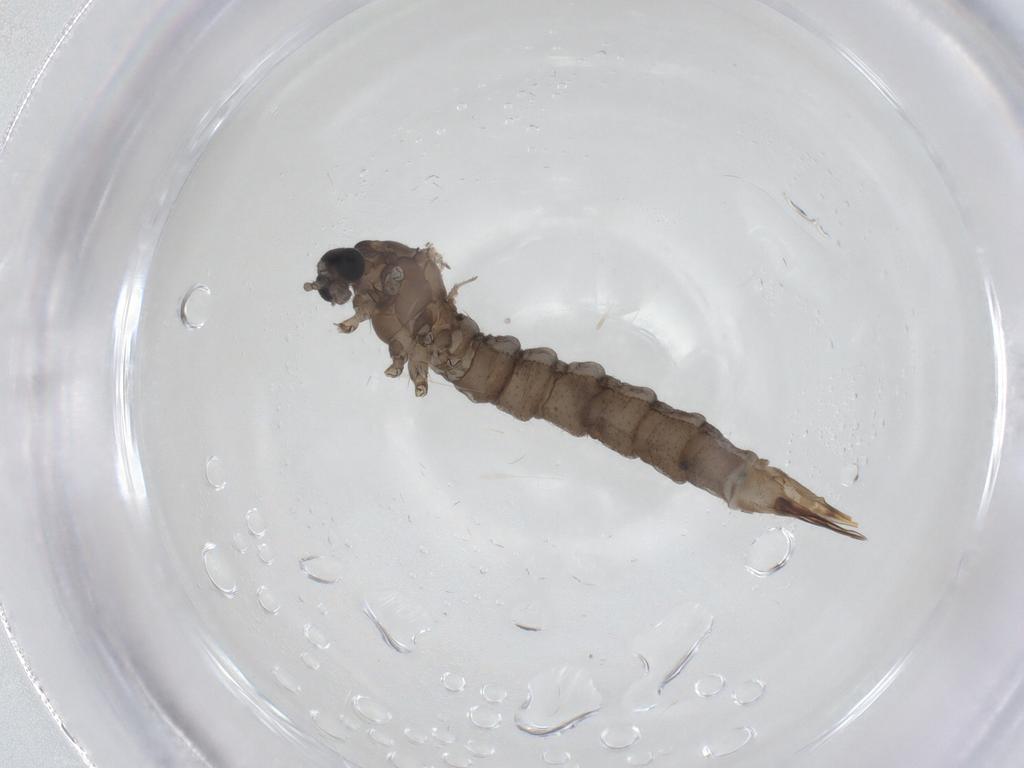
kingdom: Animalia
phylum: Arthropoda
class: Insecta
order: Diptera
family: Limoniidae
